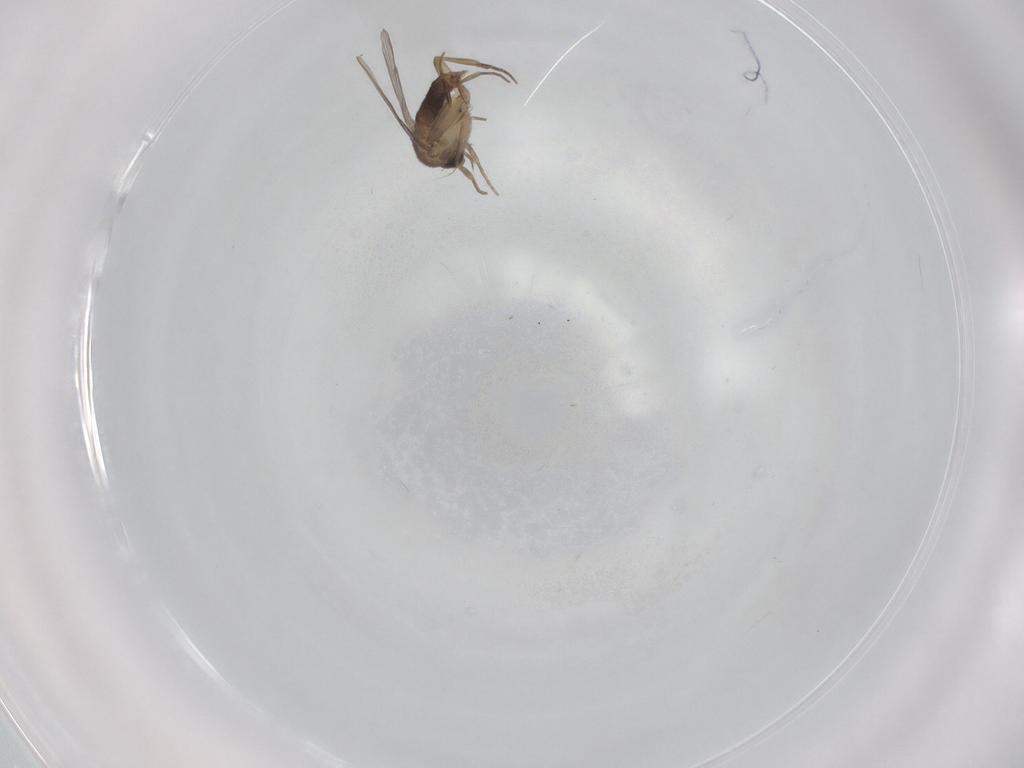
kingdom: Animalia
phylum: Arthropoda
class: Insecta
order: Diptera
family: Phoridae
